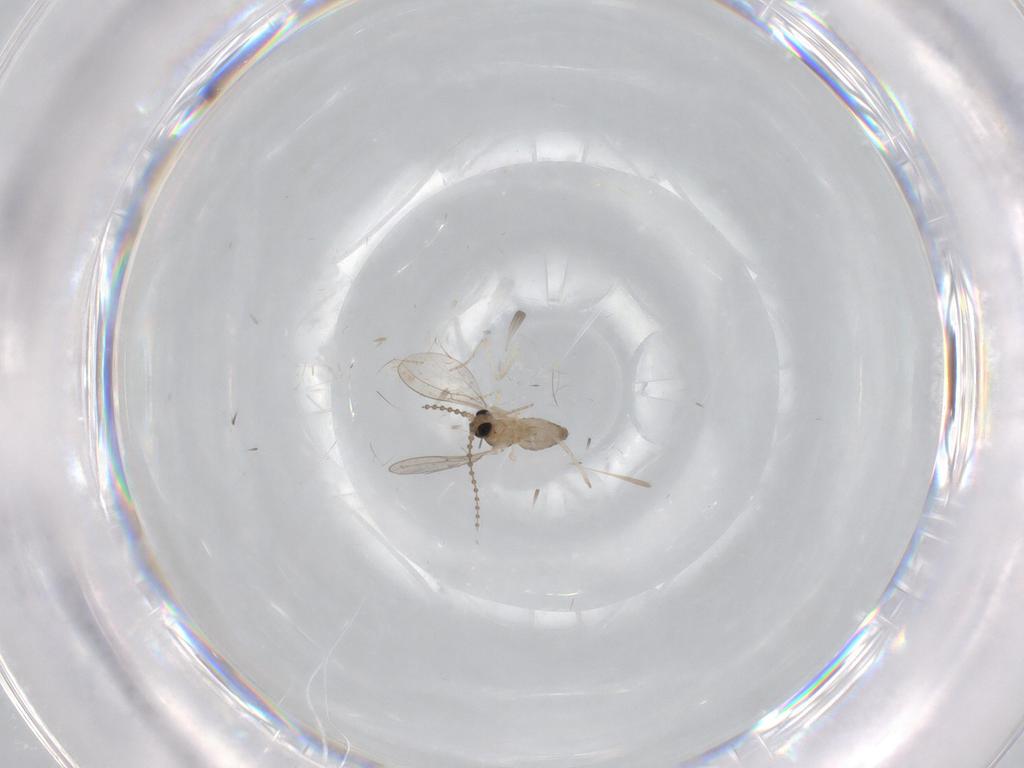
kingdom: Animalia
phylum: Arthropoda
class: Insecta
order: Diptera
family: Cecidomyiidae
